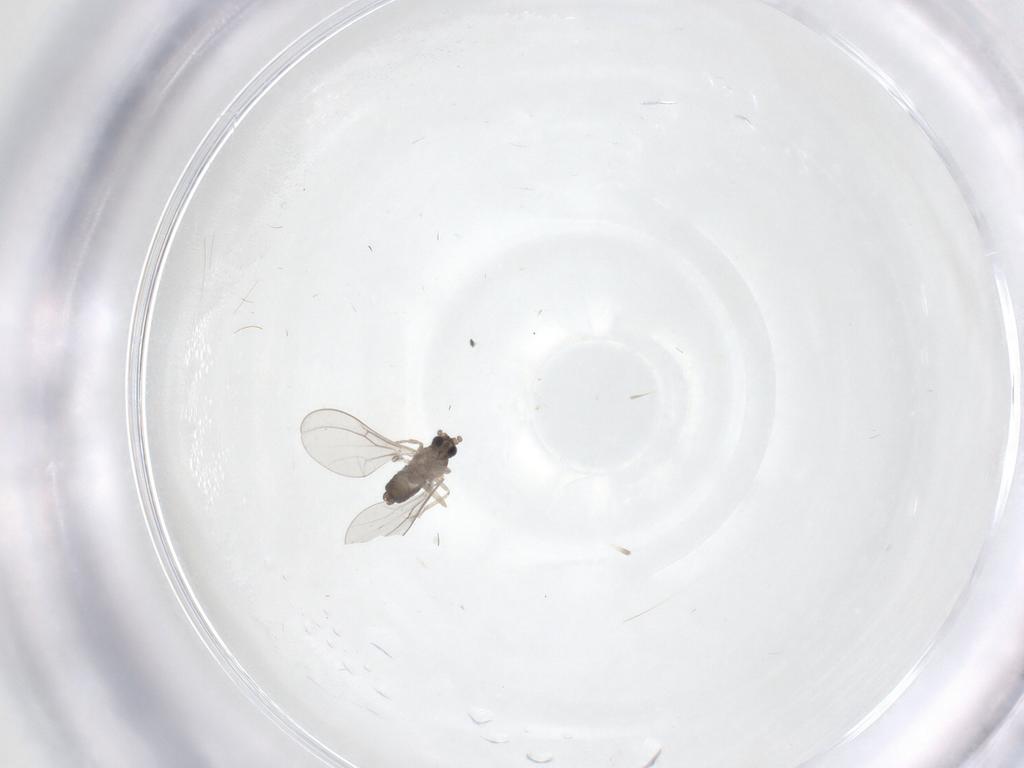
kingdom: Animalia
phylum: Arthropoda
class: Insecta
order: Diptera
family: Cecidomyiidae
